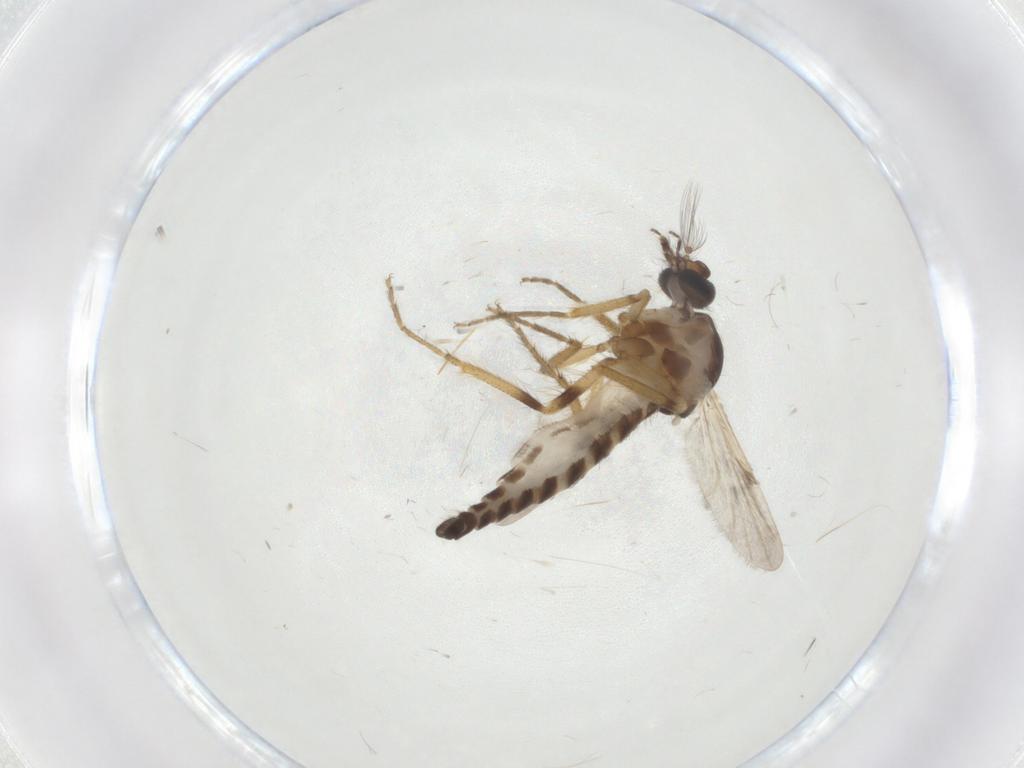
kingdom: Animalia
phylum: Arthropoda
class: Insecta
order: Diptera
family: Ceratopogonidae
